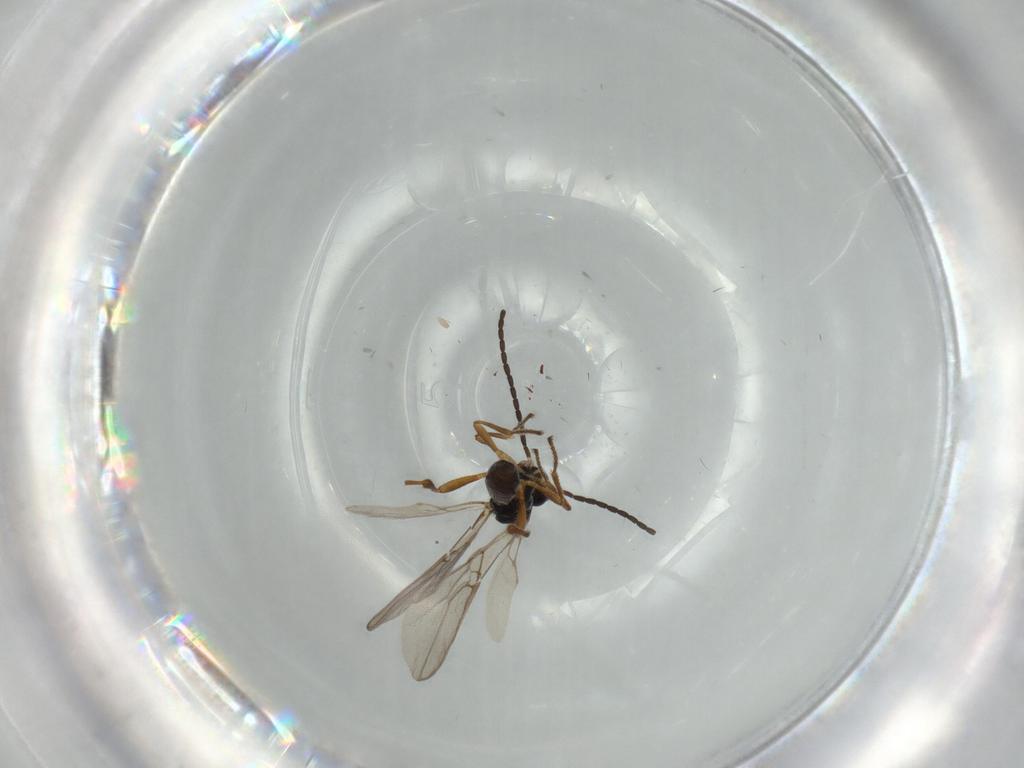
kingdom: Animalia
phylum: Arthropoda
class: Insecta
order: Hymenoptera
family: Braconidae
